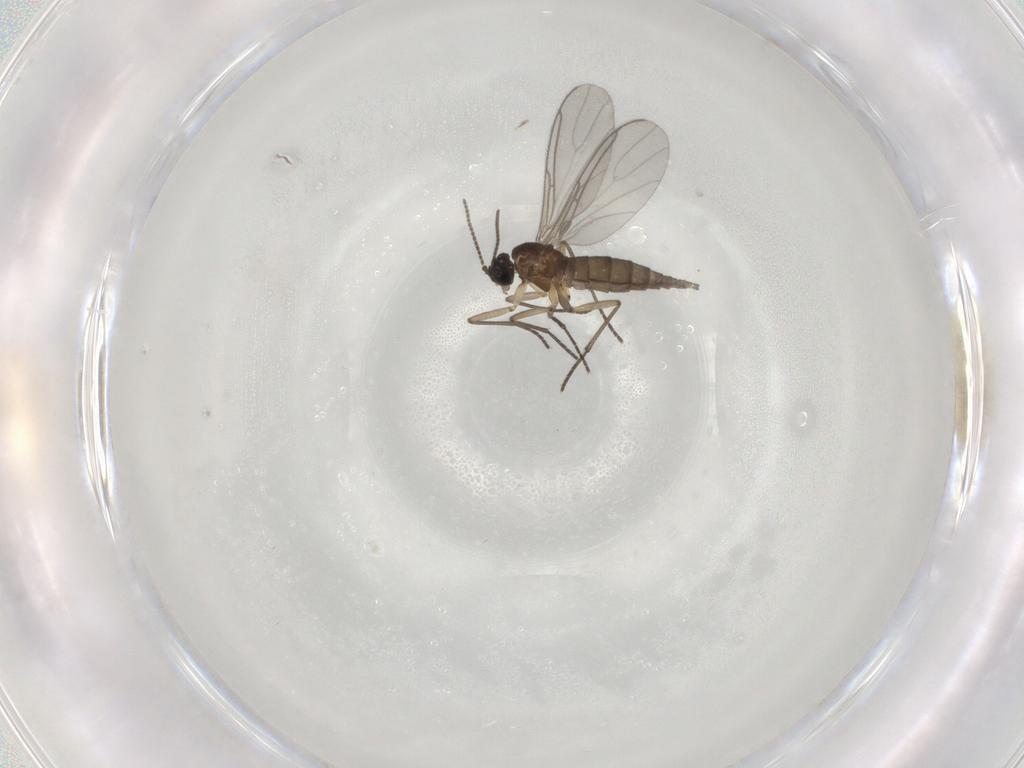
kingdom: Animalia
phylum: Arthropoda
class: Insecta
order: Diptera
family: Sciaridae
